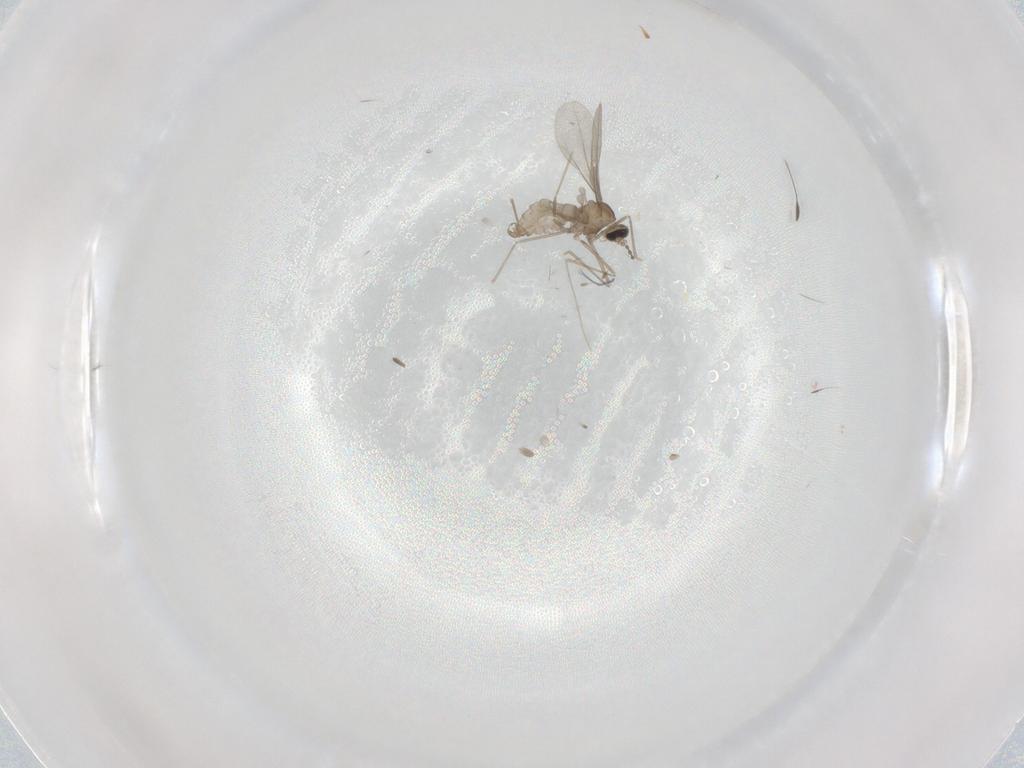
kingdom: Animalia
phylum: Arthropoda
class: Insecta
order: Diptera
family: Cecidomyiidae
